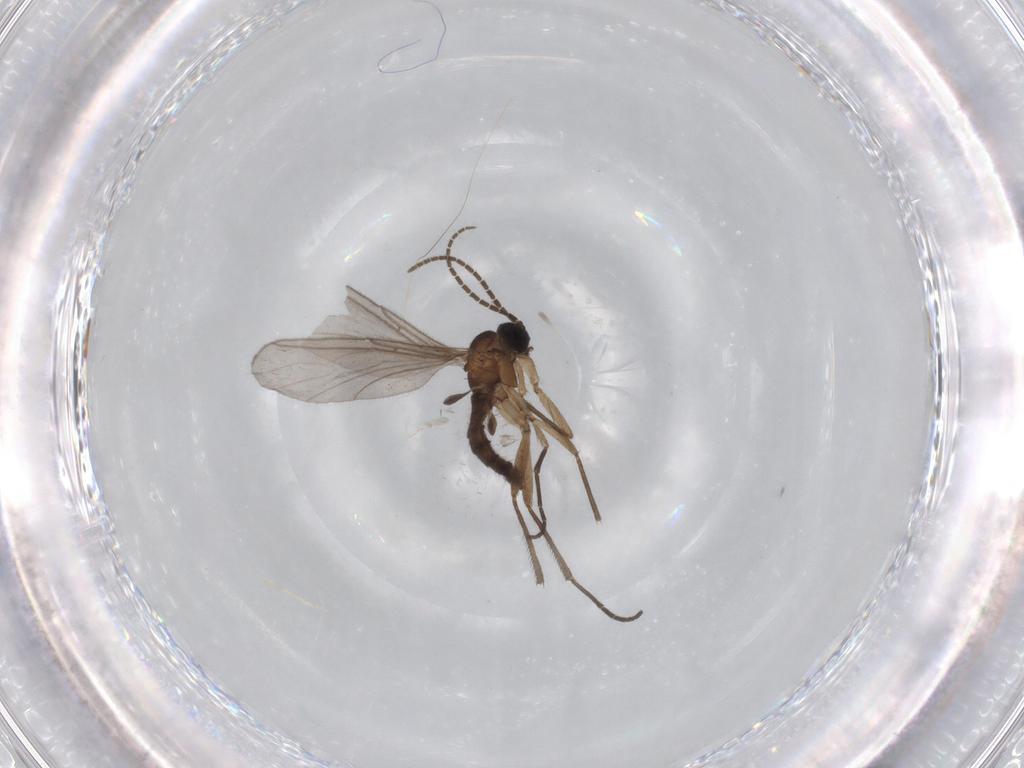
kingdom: Animalia
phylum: Arthropoda
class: Insecta
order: Diptera
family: Sciaridae
